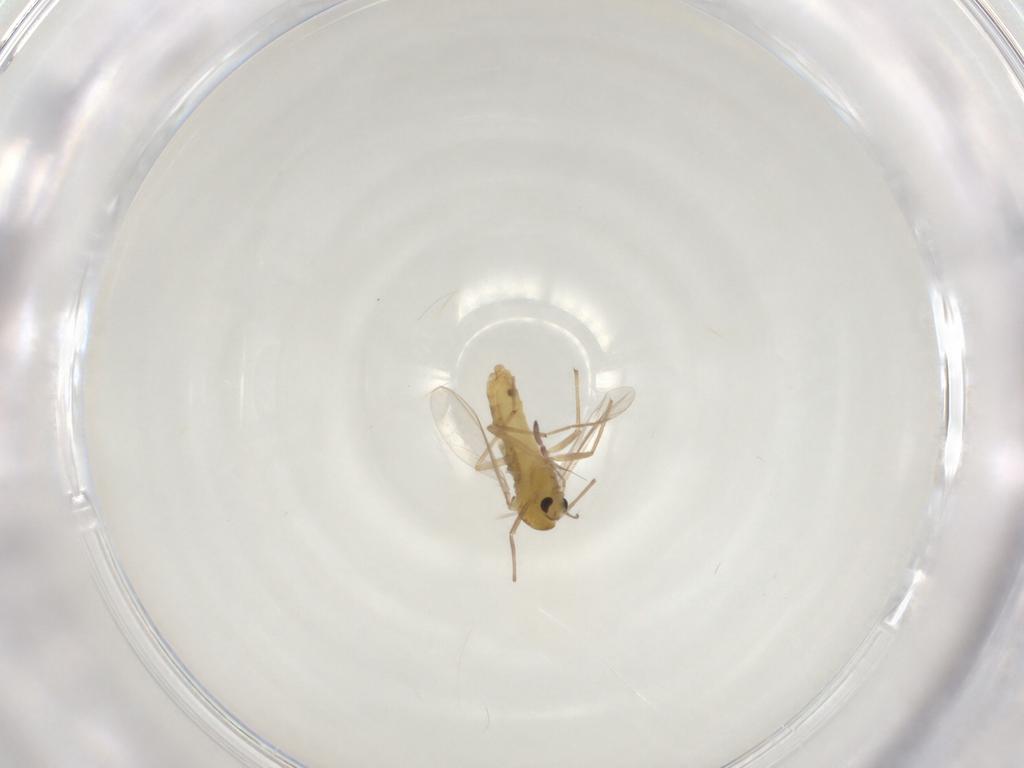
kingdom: Animalia
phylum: Arthropoda
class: Insecta
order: Diptera
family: Chironomidae
